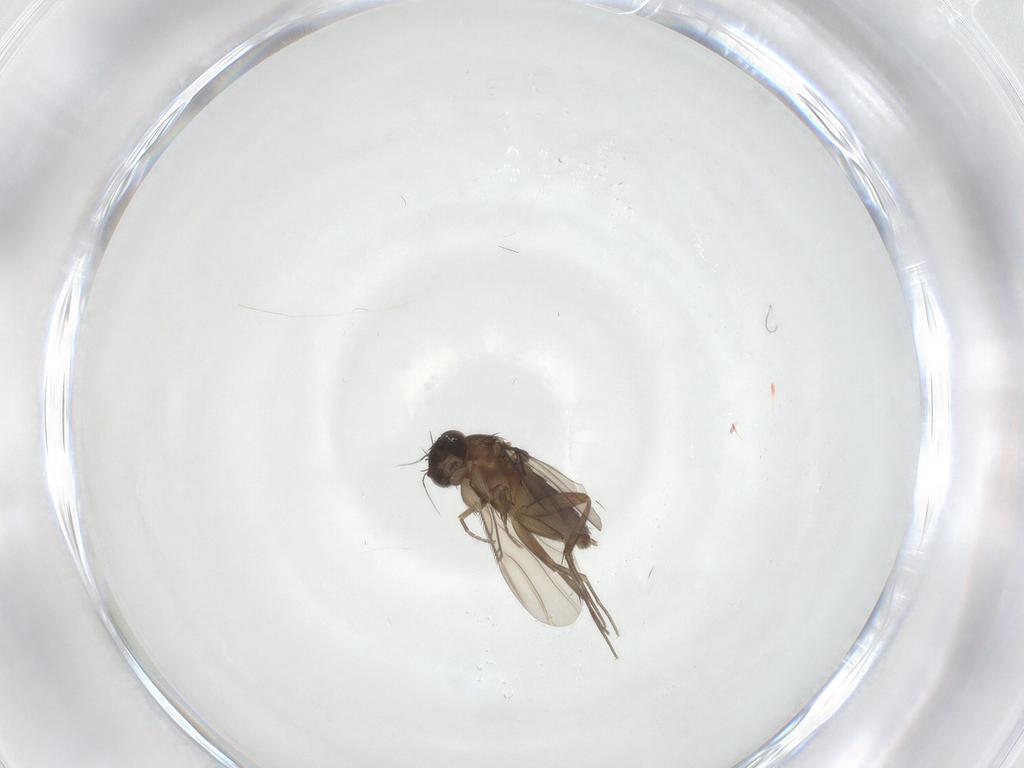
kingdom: Animalia
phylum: Arthropoda
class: Insecta
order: Diptera
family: Phoridae
